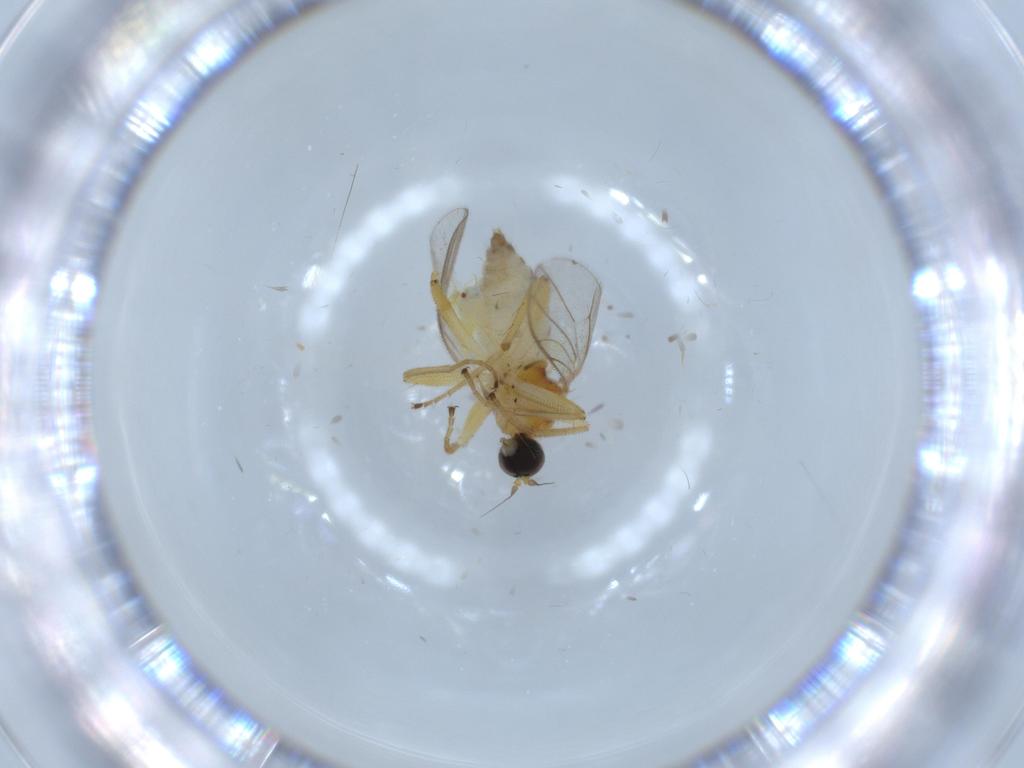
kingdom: Animalia
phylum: Arthropoda
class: Insecta
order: Diptera
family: Hybotidae
